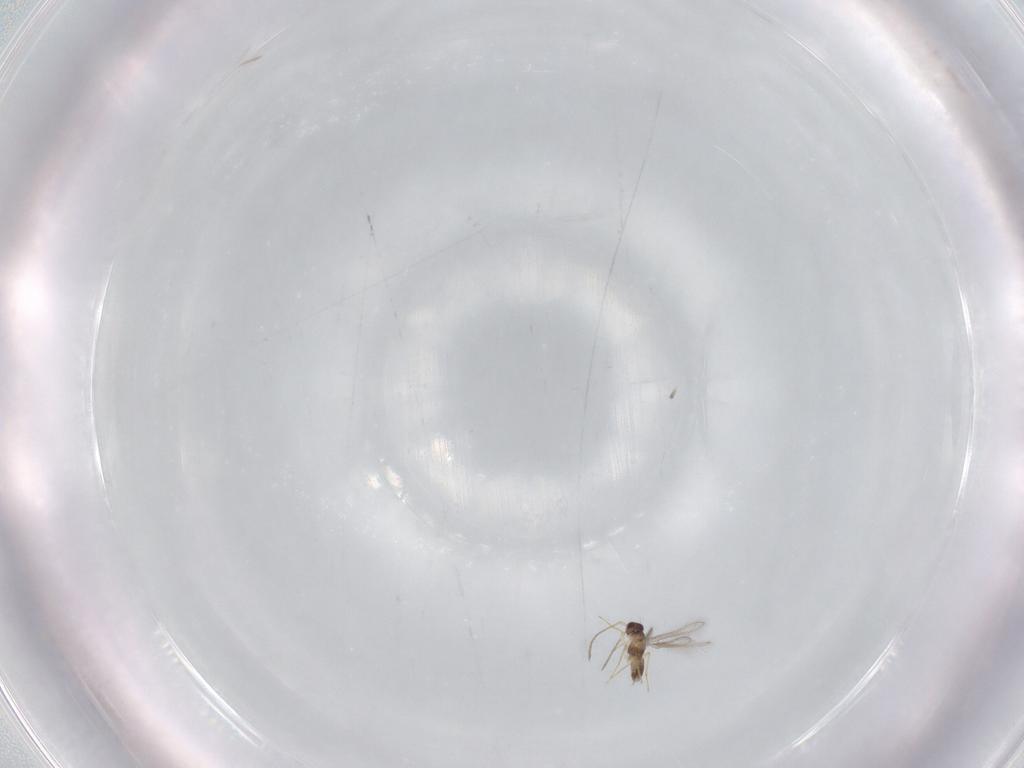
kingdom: Animalia
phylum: Arthropoda
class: Insecta
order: Hymenoptera
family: Mymaridae
